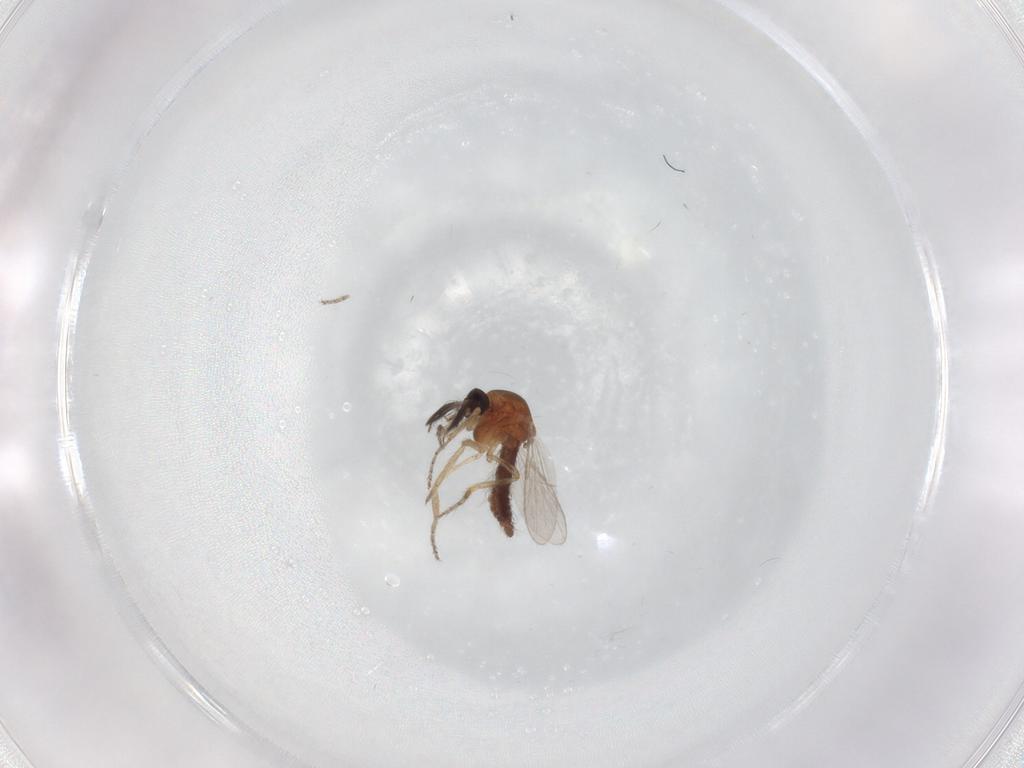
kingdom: Animalia
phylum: Arthropoda
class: Insecta
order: Diptera
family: Ceratopogonidae
